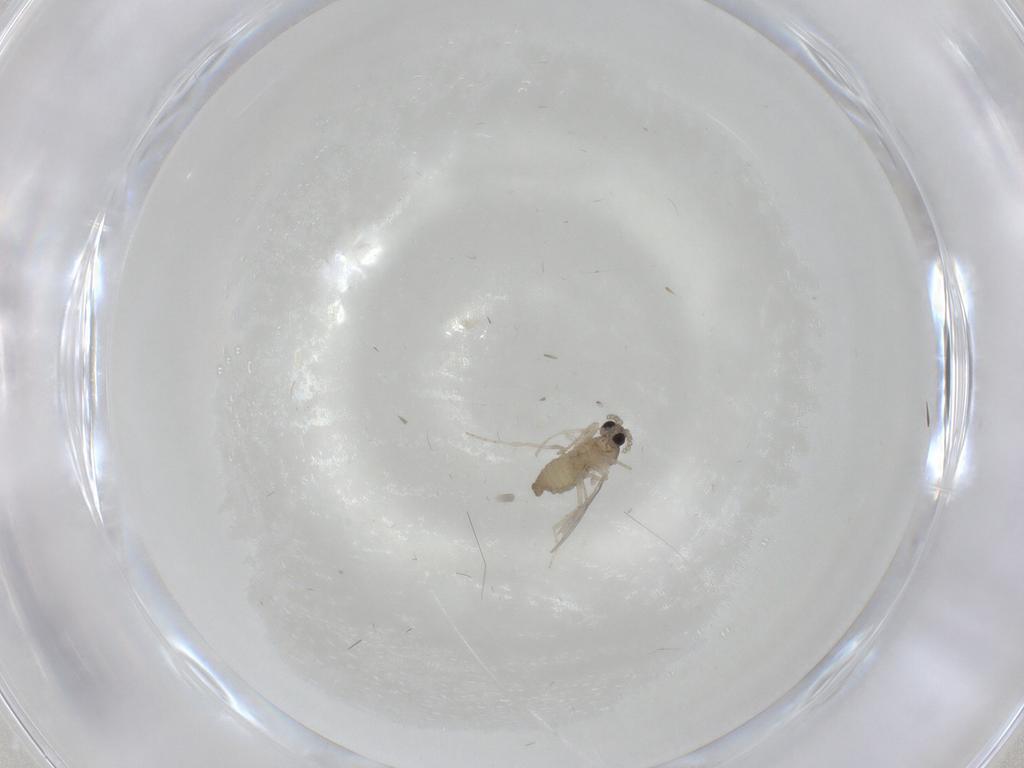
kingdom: Animalia
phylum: Arthropoda
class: Insecta
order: Diptera
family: Cecidomyiidae
